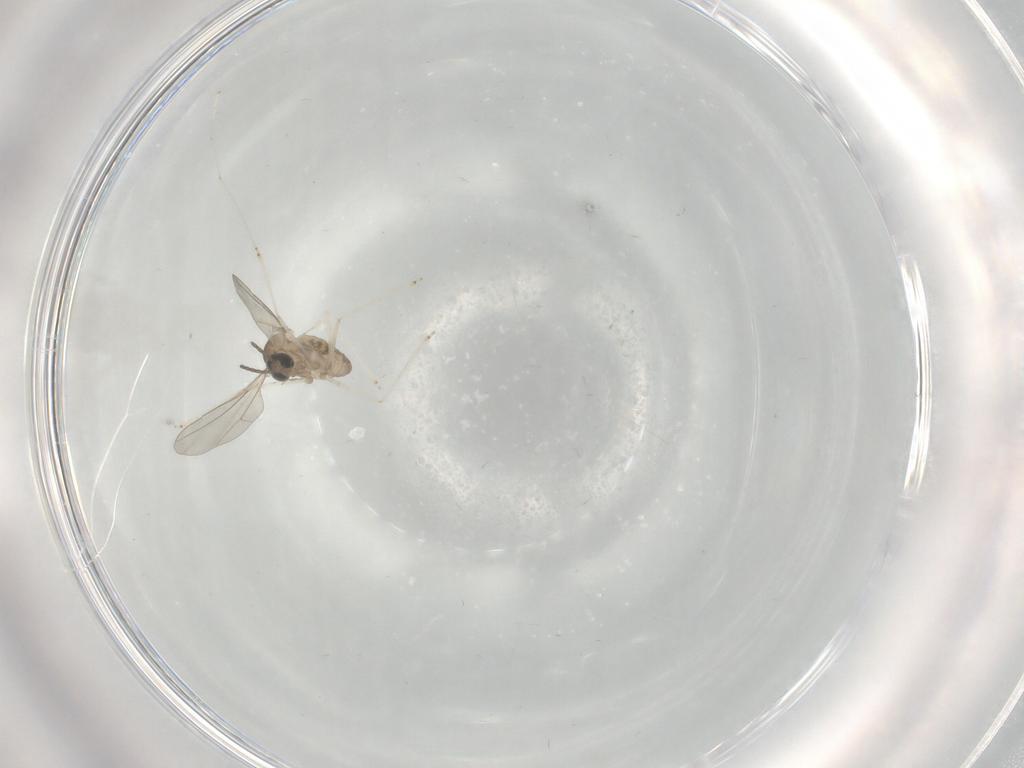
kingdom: Animalia
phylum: Arthropoda
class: Insecta
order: Diptera
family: Cecidomyiidae
